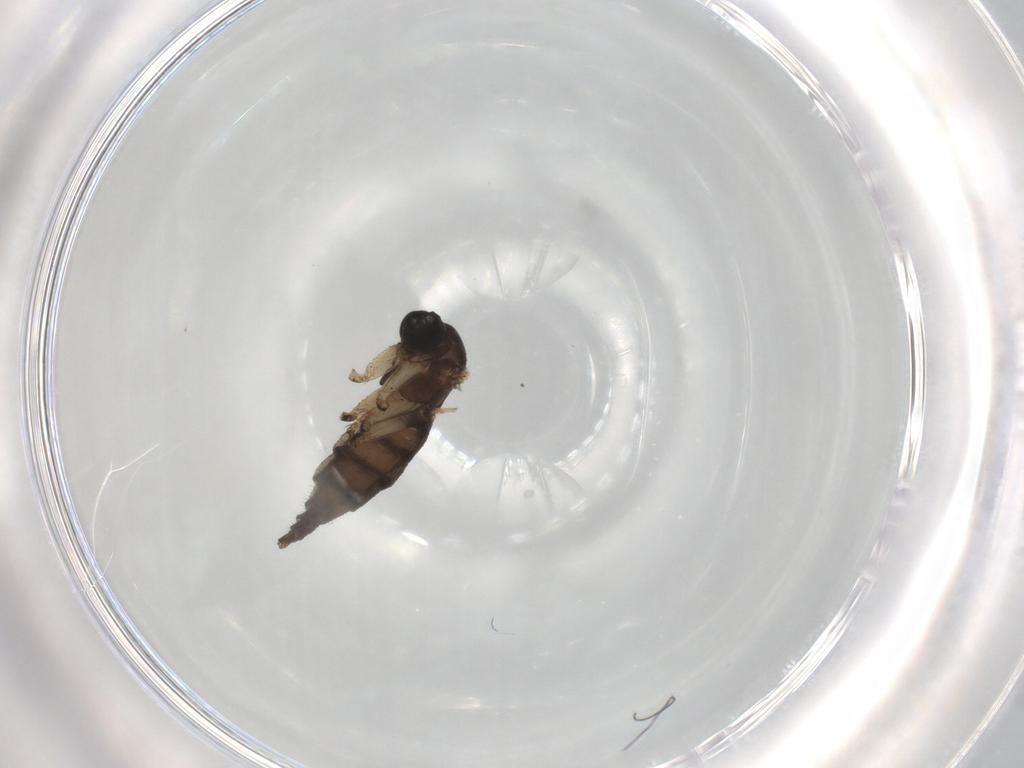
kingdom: Animalia
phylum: Arthropoda
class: Insecta
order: Diptera
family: Sciaridae
